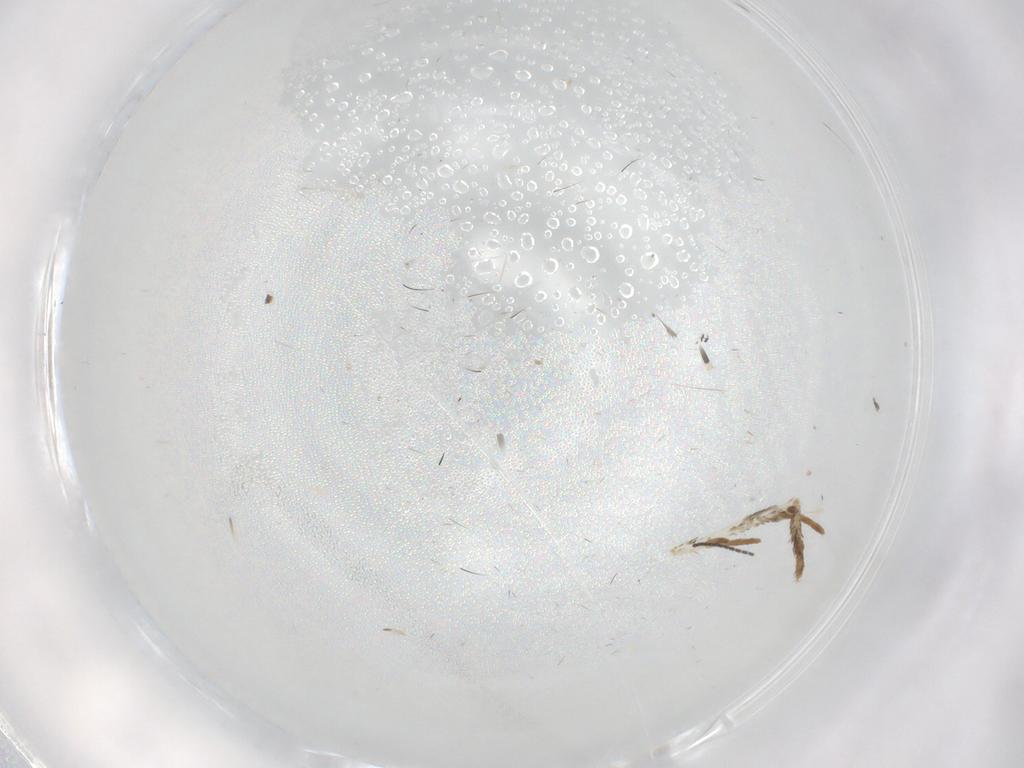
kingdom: Animalia
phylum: Arthropoda
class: Insecta
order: Lepidoptera
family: Tineidae
